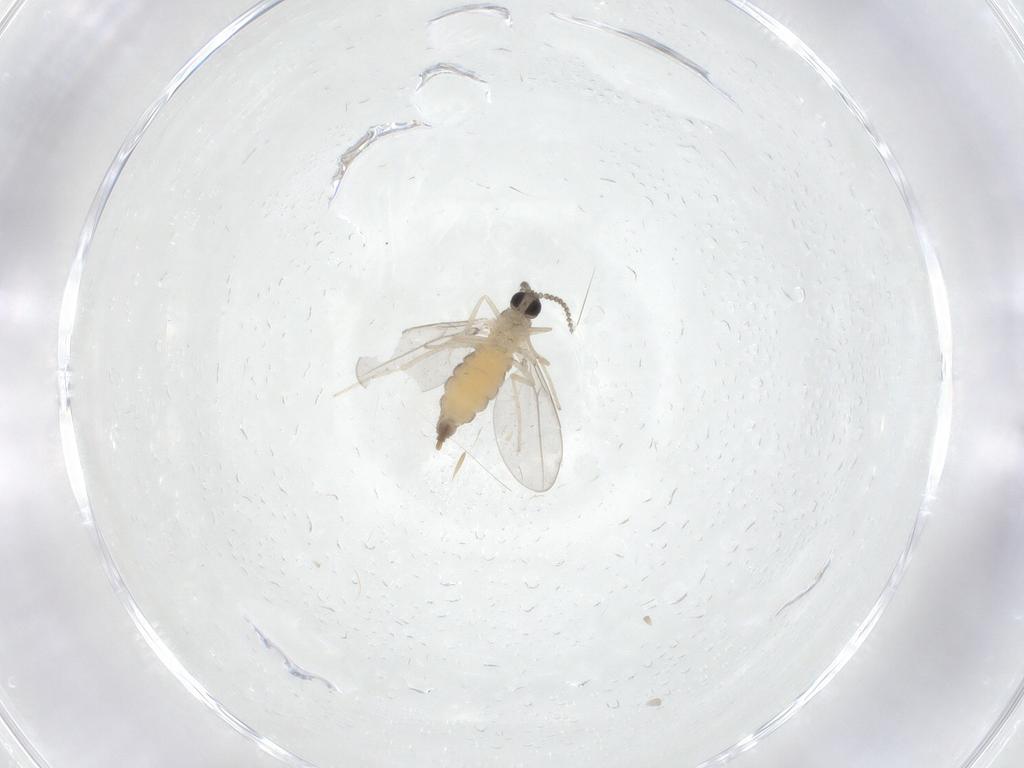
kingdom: Animalia
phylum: Arthropoda
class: Insecta
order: Diptera
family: Cecidomyiidae
